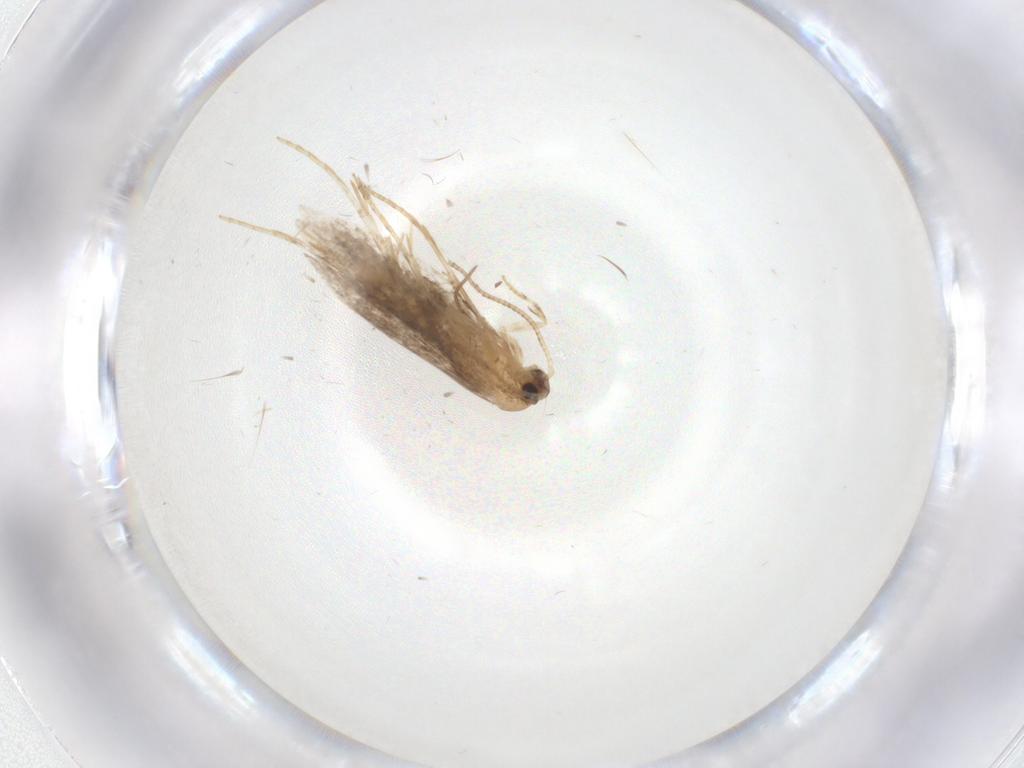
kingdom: Animalia
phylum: Arthropoda
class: Insecta
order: Lepidoptera
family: Tineidae
